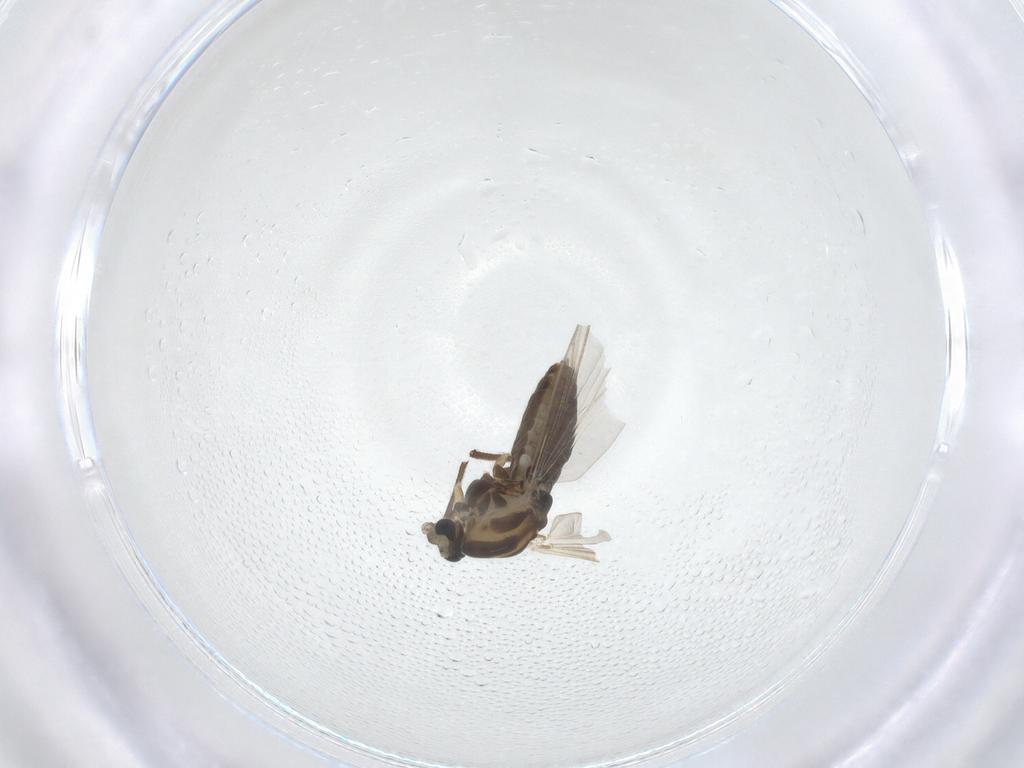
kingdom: Animalia
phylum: Arthropoda
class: Insecta
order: Diptera
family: Chironomidae
